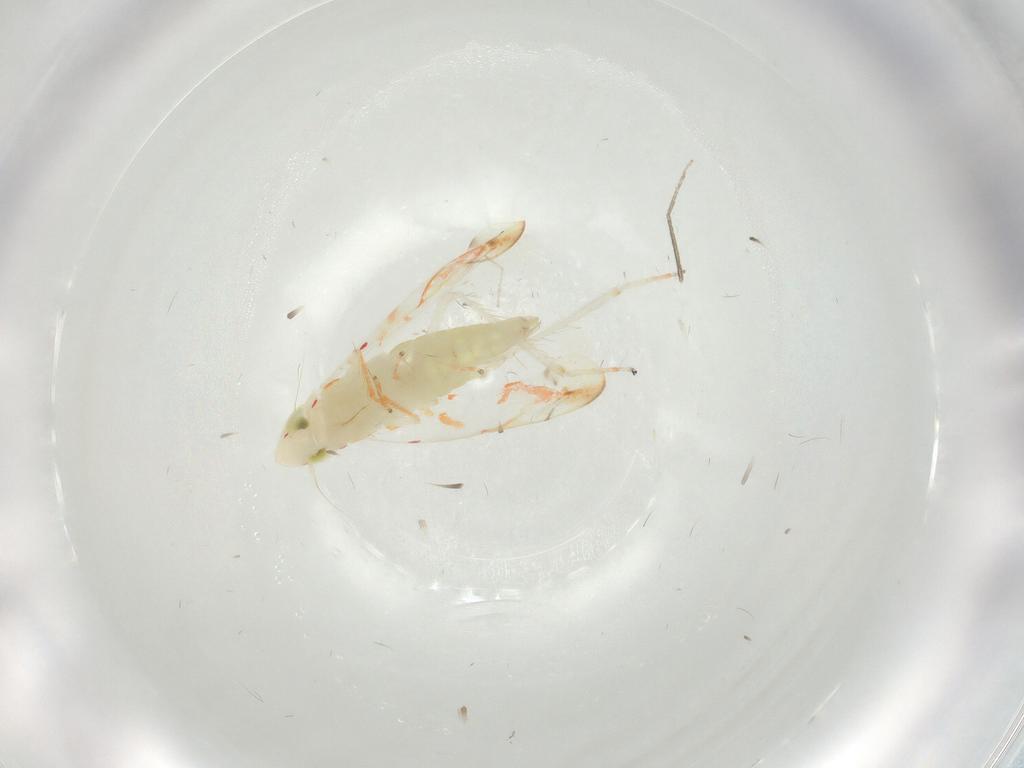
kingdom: Animalia
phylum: Arthropoda
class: Insecta
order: Hemiptera
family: Cicadellidae
